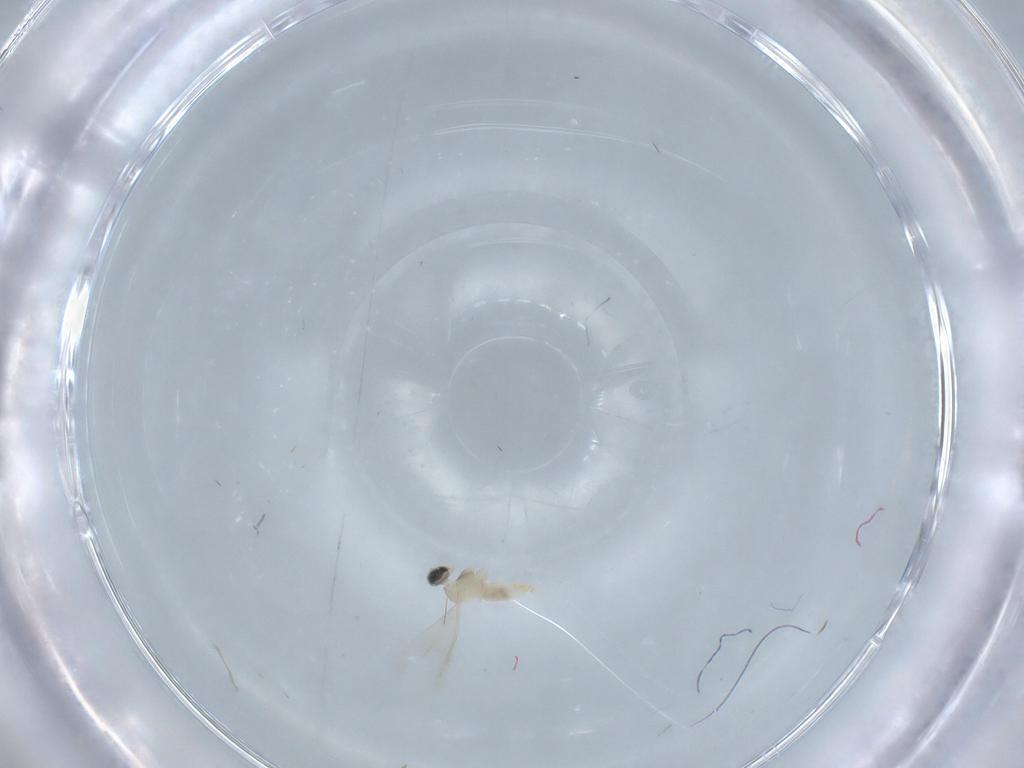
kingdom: Animalia
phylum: Arthropoda
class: Insecta
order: Diptera
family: Cecidomyiidae
